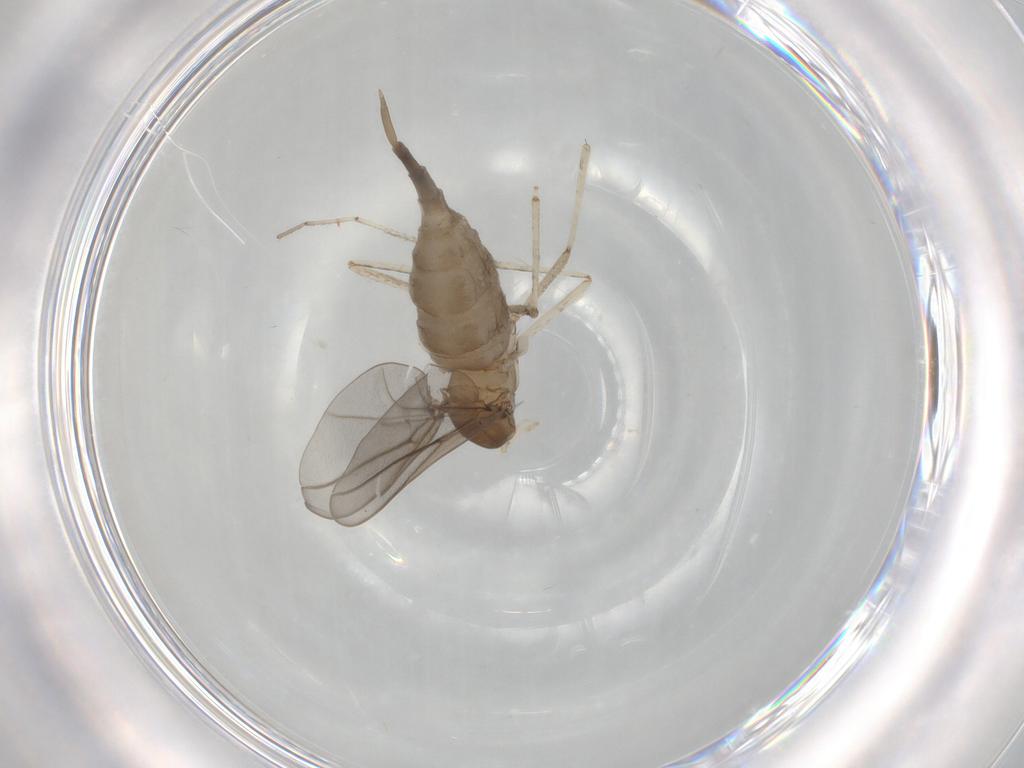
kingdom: Animalia
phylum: Arthropoda
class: Insecta
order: Diptera
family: Cecidomyiidae
